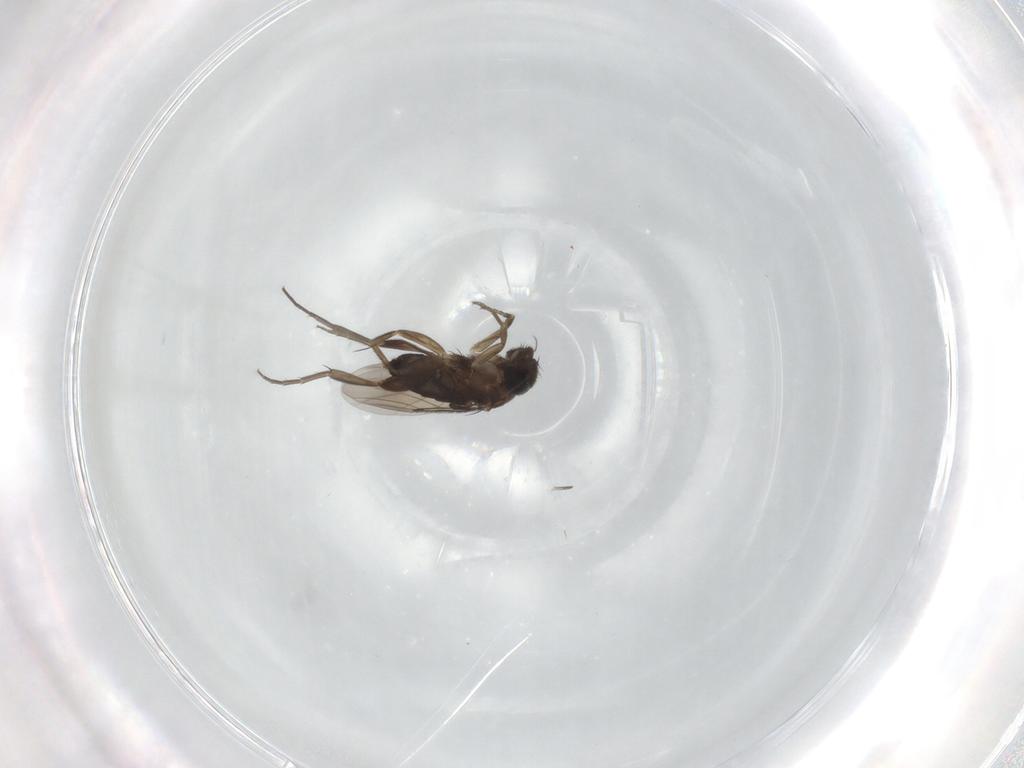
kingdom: Animalia
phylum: Arthropoda
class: Insecta
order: Diptera
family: Phoridae
